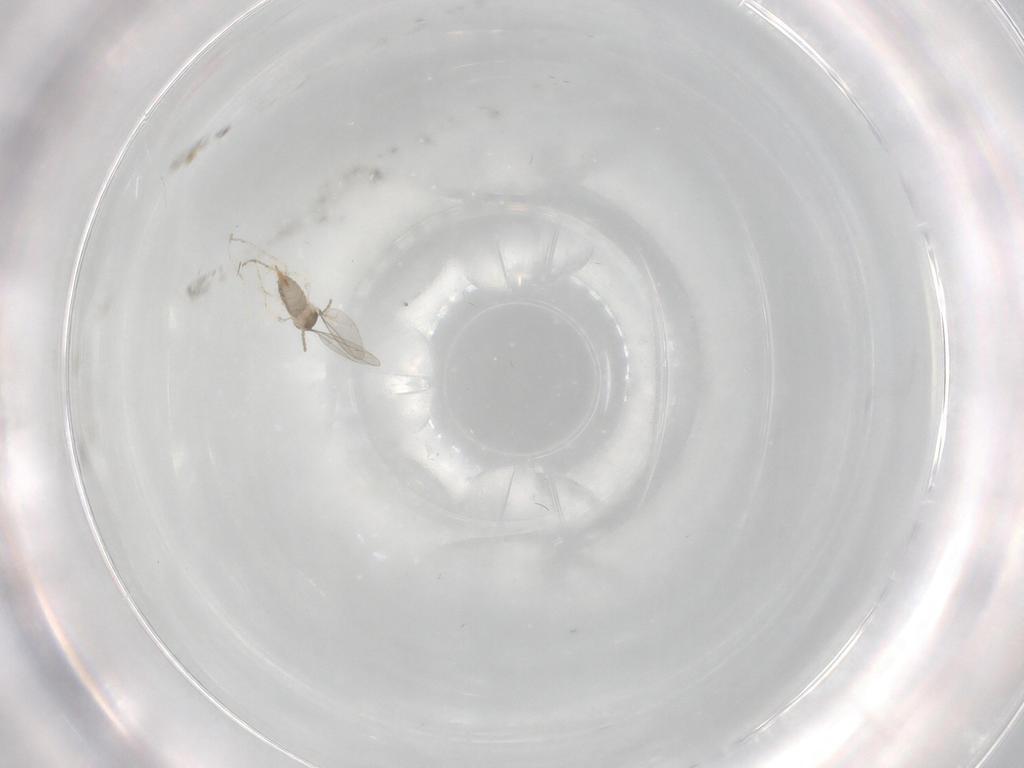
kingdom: Animalia
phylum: Arthropoda
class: Insecta
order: Diptera
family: Cecidomyiidae
